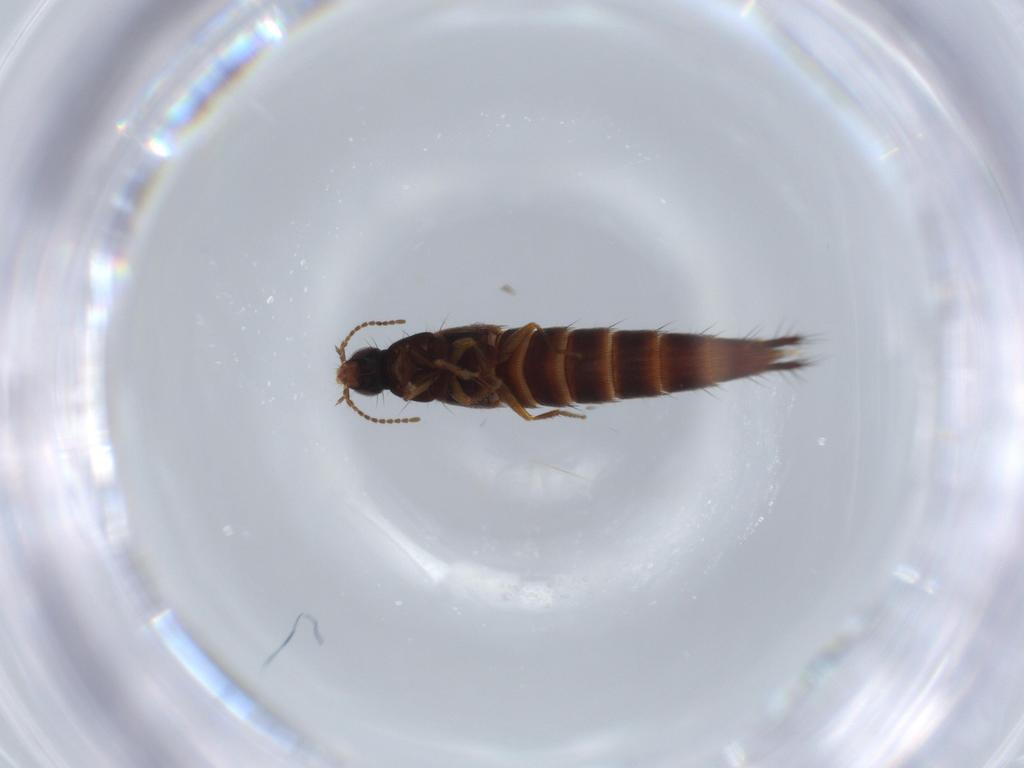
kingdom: Animalia
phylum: Arthropoda
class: Insecta
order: Coleoptera
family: Staphylinidae
